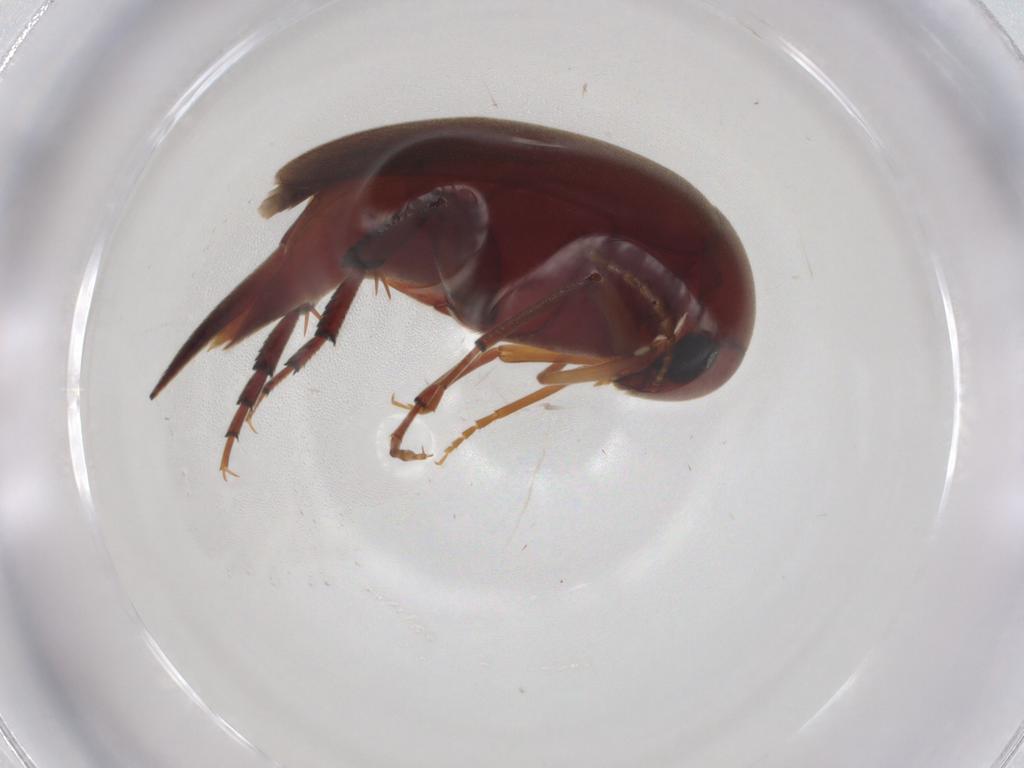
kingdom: Animalia
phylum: Arthropoda
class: Insecta
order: Coleoptera
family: Mordellidae
